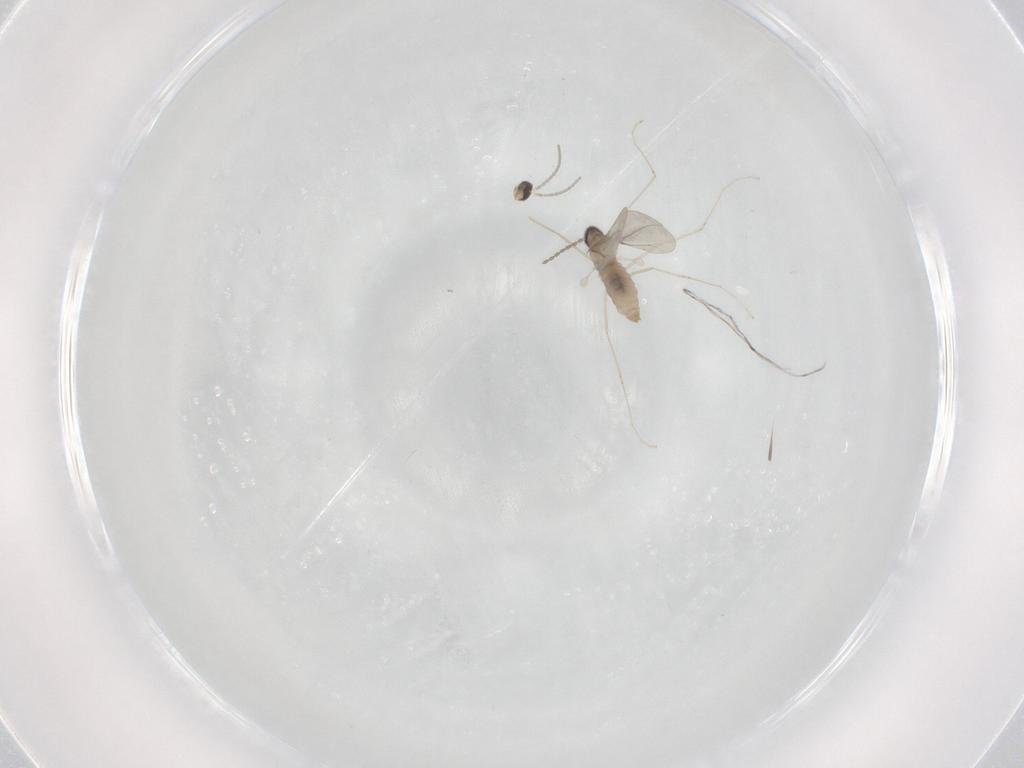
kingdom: Animalia
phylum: Arthropoda
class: Insecta
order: Diptera
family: Cecidomyiidae
